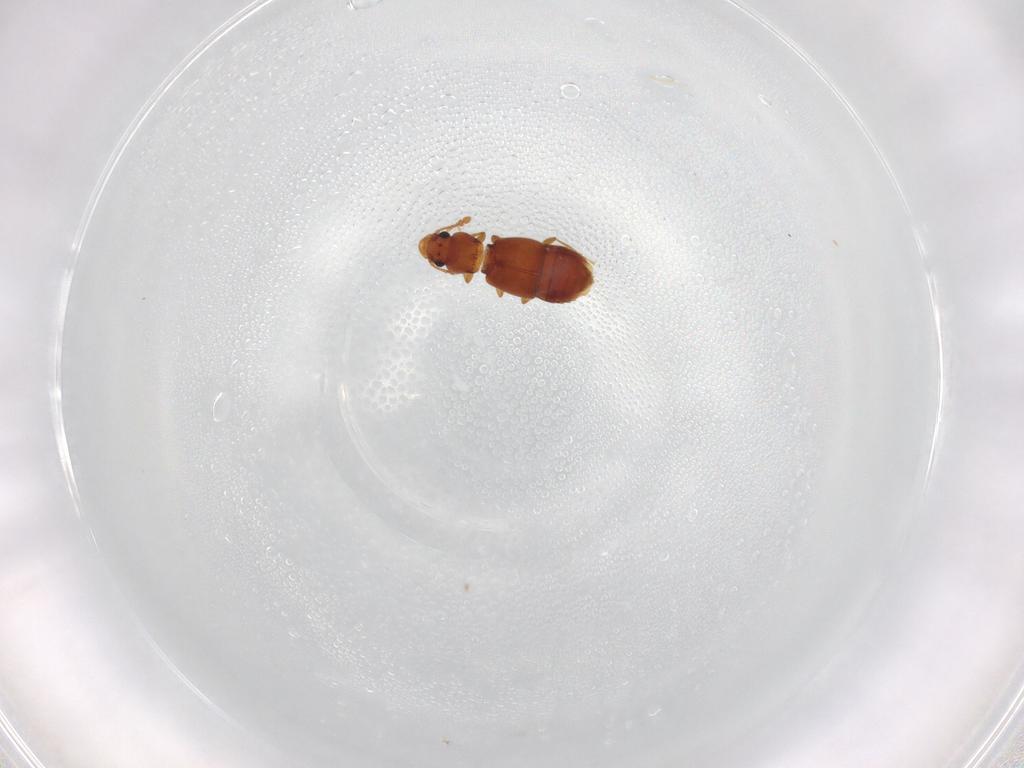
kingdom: Animalia
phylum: Arthropoda
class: Insecta
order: Coleoptera
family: Staphylinidae
